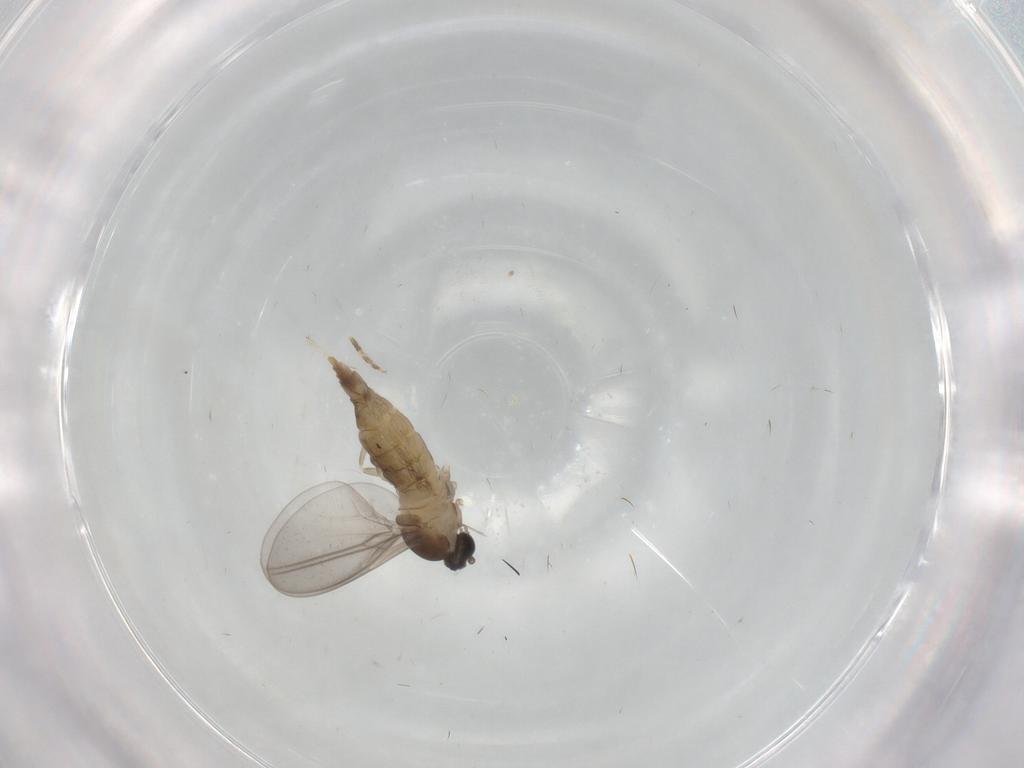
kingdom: Animalia
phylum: Arthropoda
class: Insecta
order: Diptera
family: Cecidomyiidae
